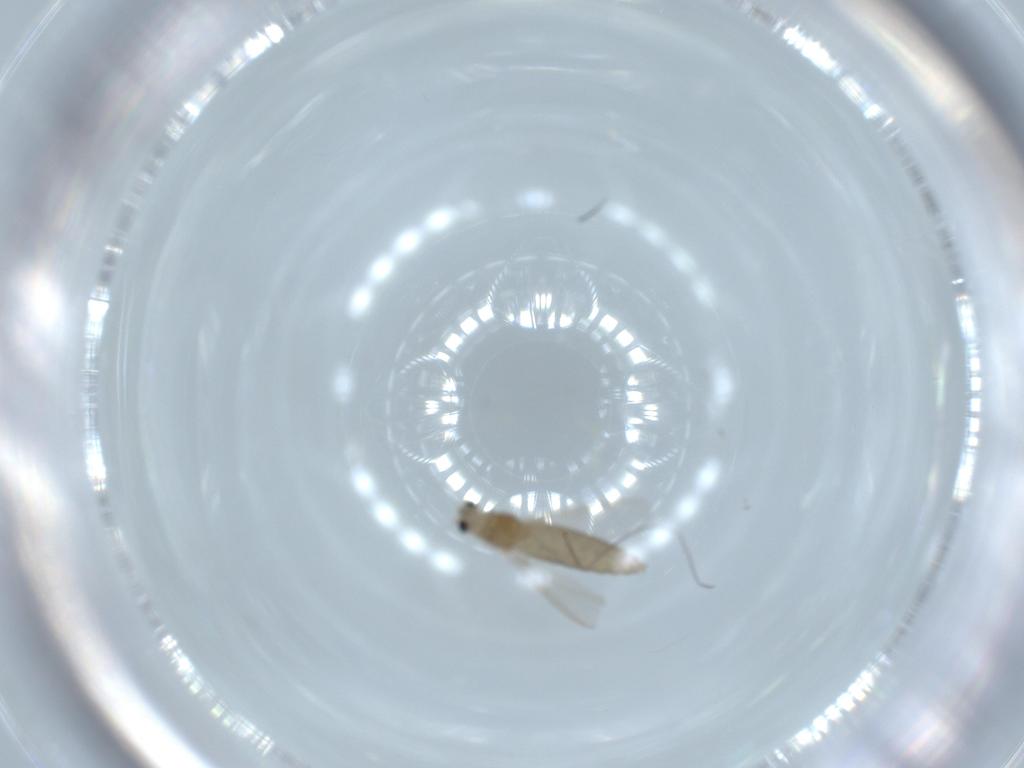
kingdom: Animalia
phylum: Arthropoda
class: Insecta
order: Diptera
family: Chironomidae
